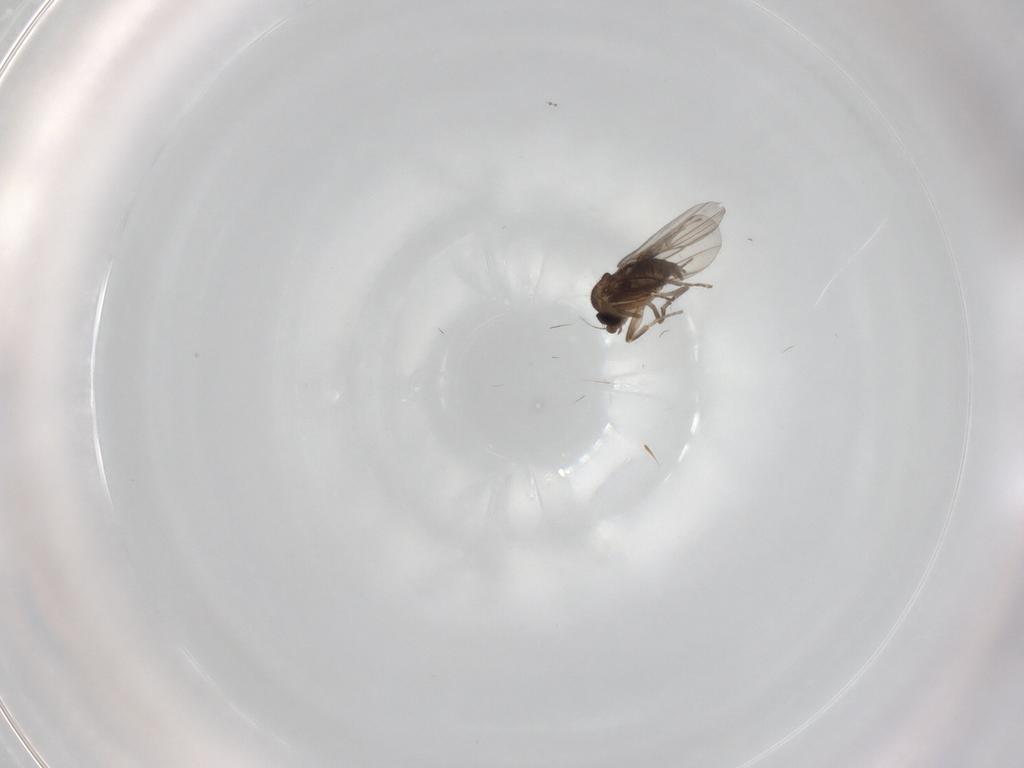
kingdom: Animalia
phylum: Arthropoda
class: Insecta
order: Diptera
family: Phoridae
